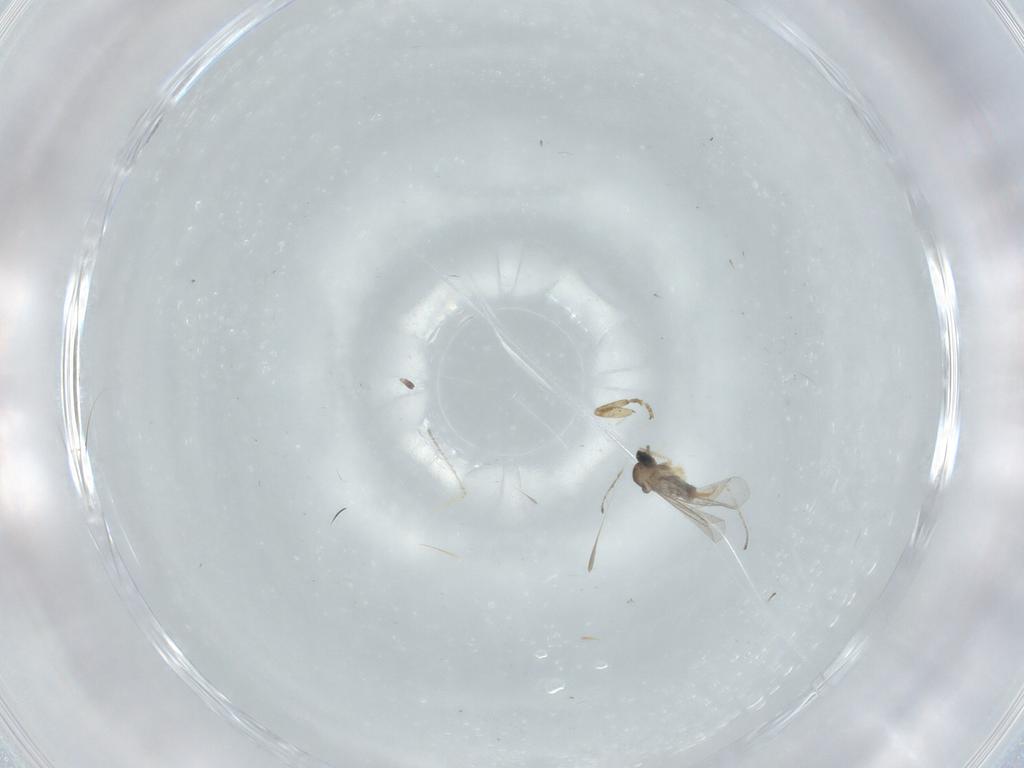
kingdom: Animalia
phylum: Arthropoda
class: Insecta
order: Diptera
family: Scatopsidae
